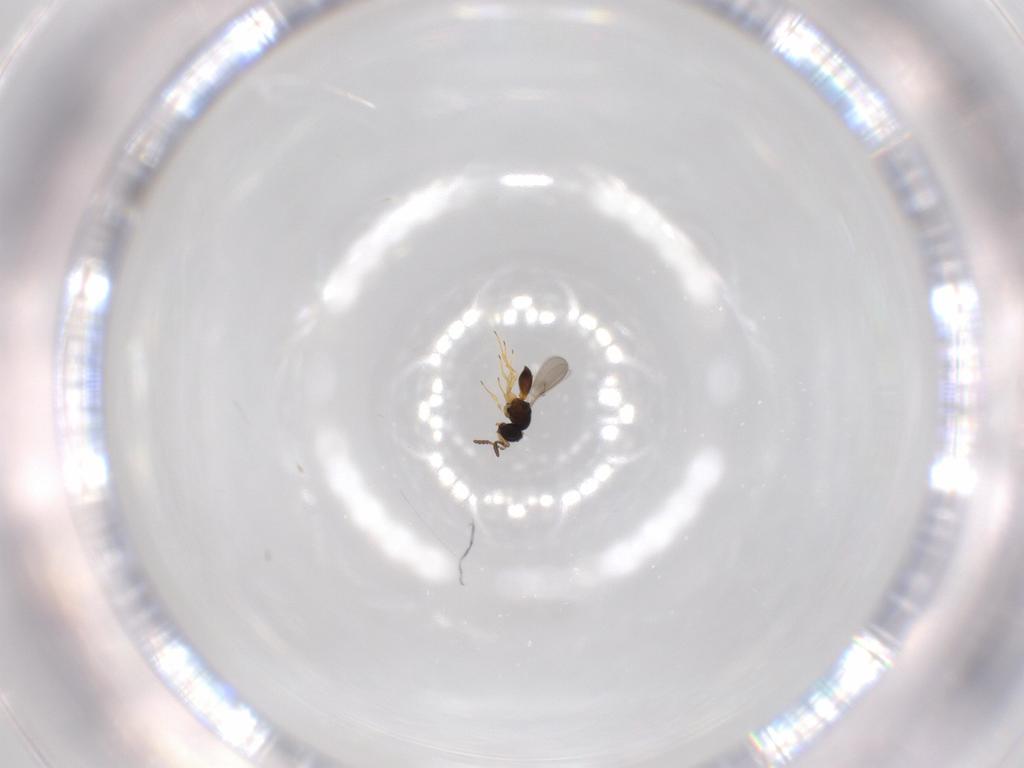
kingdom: Animalia
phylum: Arthropoda
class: Insecta
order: Hymenoptera
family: Scelionidae
